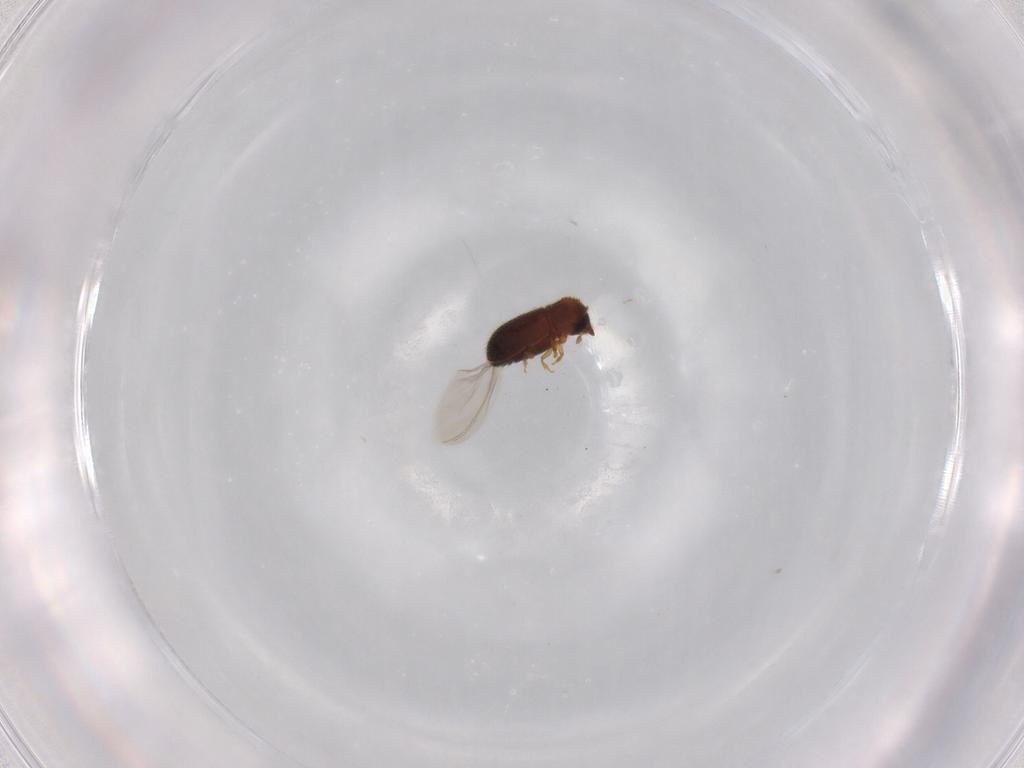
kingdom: Animalia
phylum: Arthropoda
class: Insecta
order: Coleoptera
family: Curculionidae
